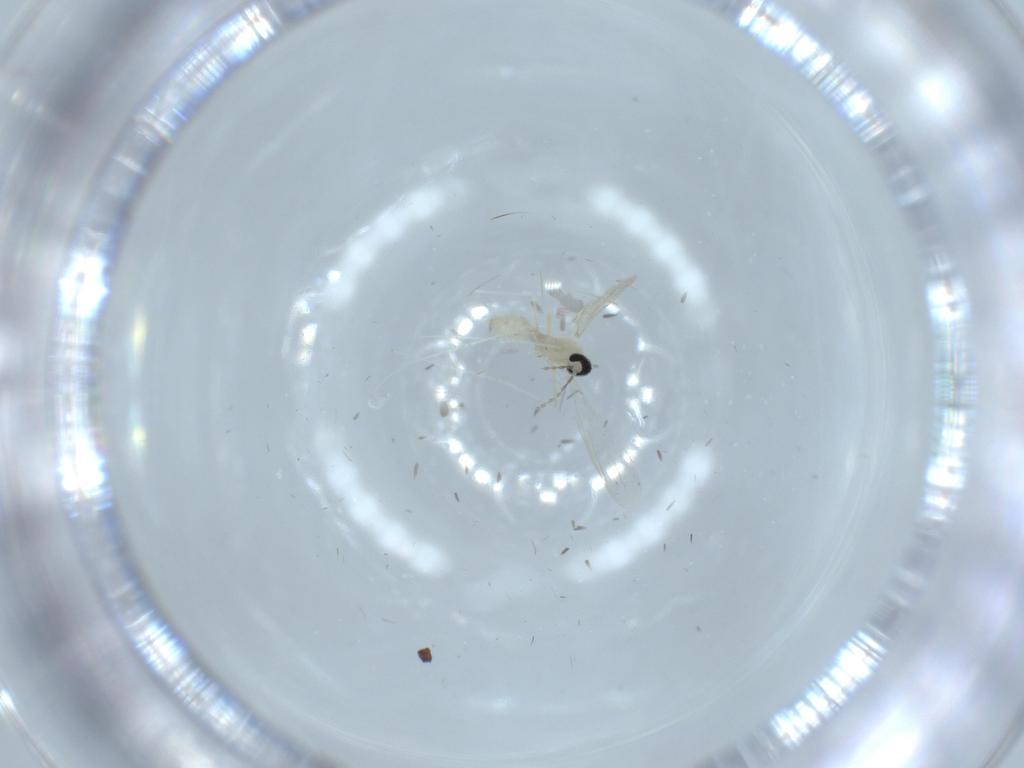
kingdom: Animalia
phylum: Arthropoda
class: Insecta
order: Diptera
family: Cecidomyiidae
